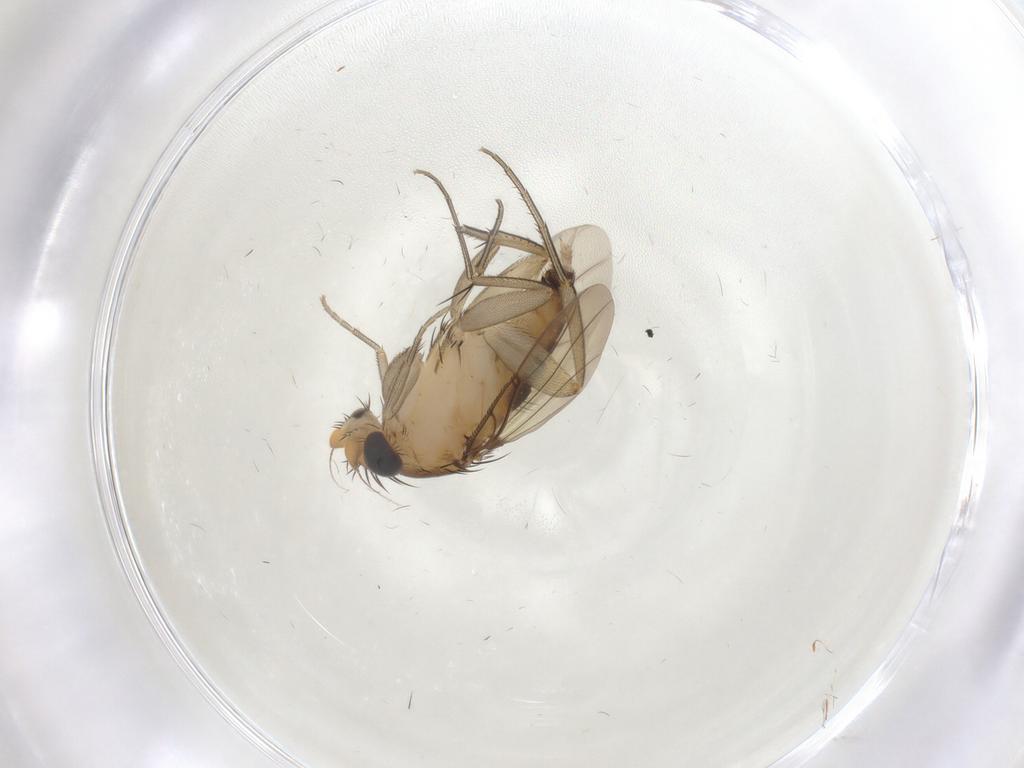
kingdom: Animalia
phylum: Arthropoda
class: Insecta
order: Diptera
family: Phoridae
